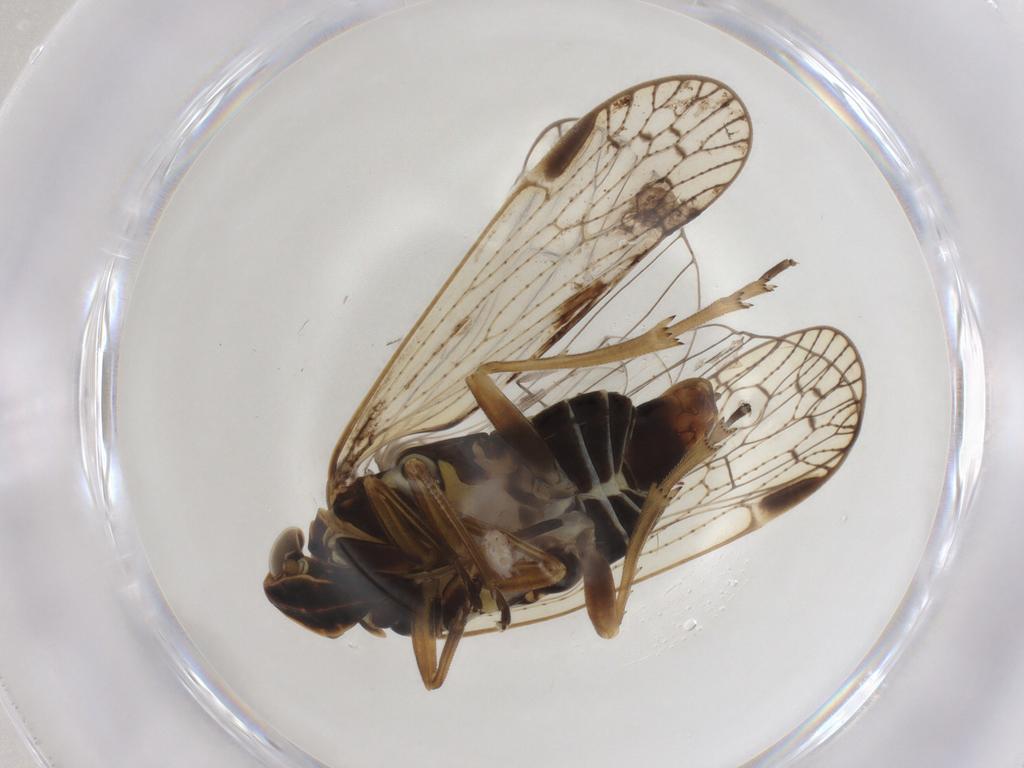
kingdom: Animalia
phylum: Arthropoda
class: Insecta
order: Hemiptera
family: Cixiidae
